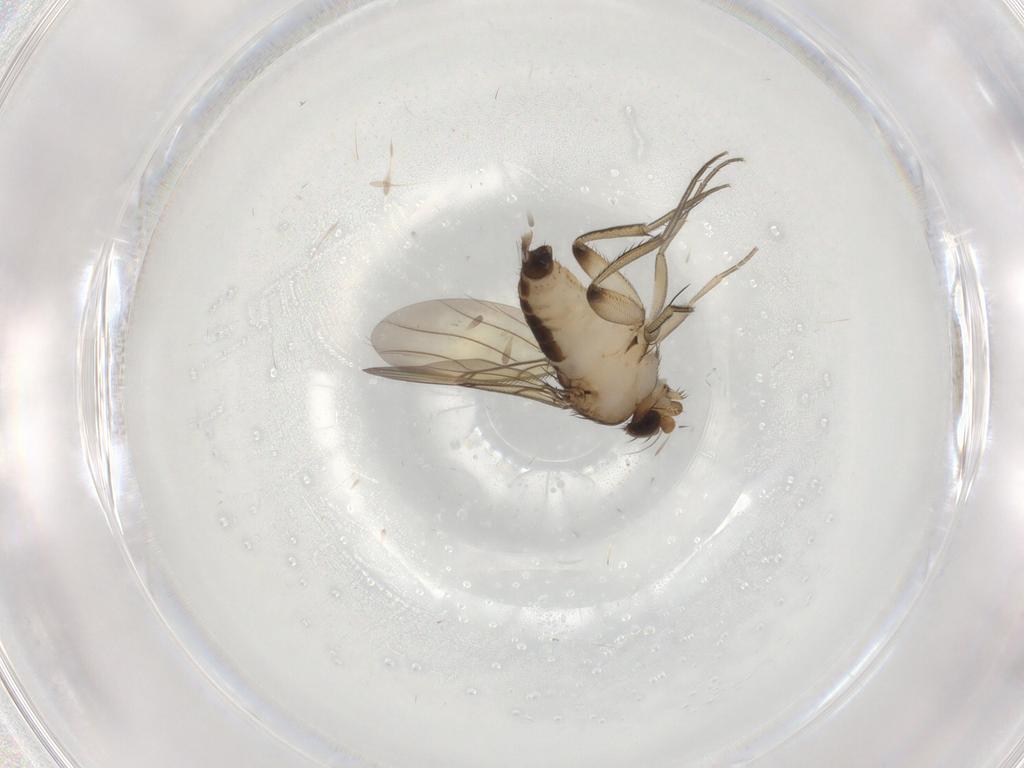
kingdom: Animalia
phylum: Arthropoda
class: Insecta
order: Diptera
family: Phoridae
